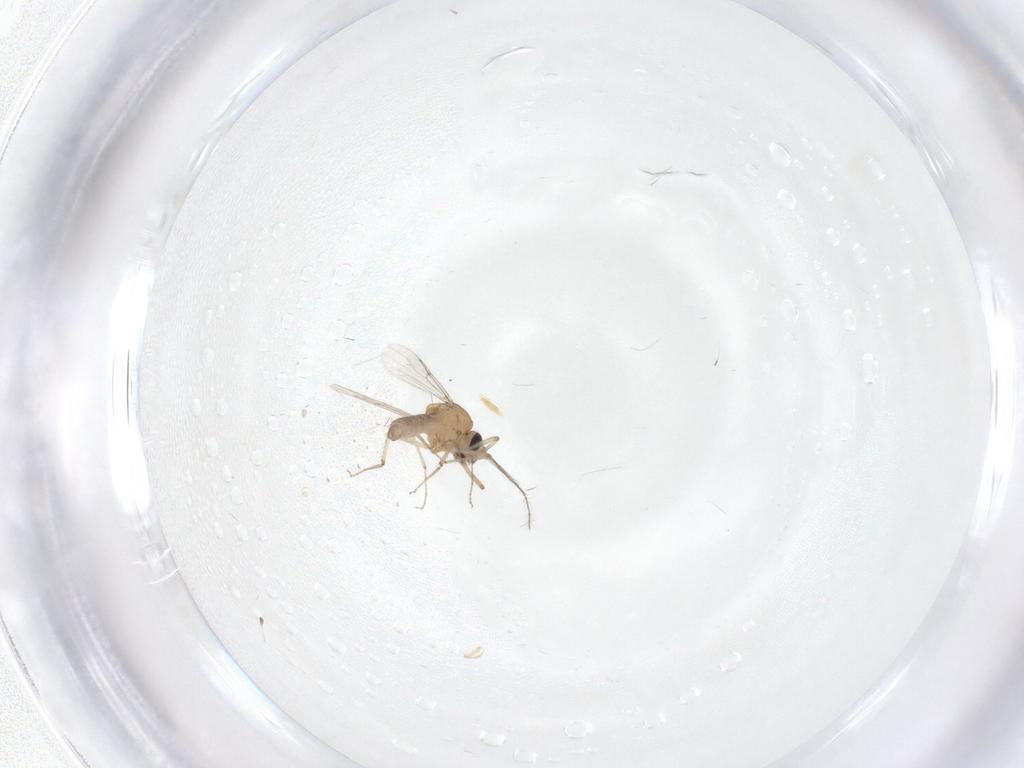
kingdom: Animalia
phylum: Arthropoda
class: Insecta
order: Diptera
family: Ceratopogonidae
